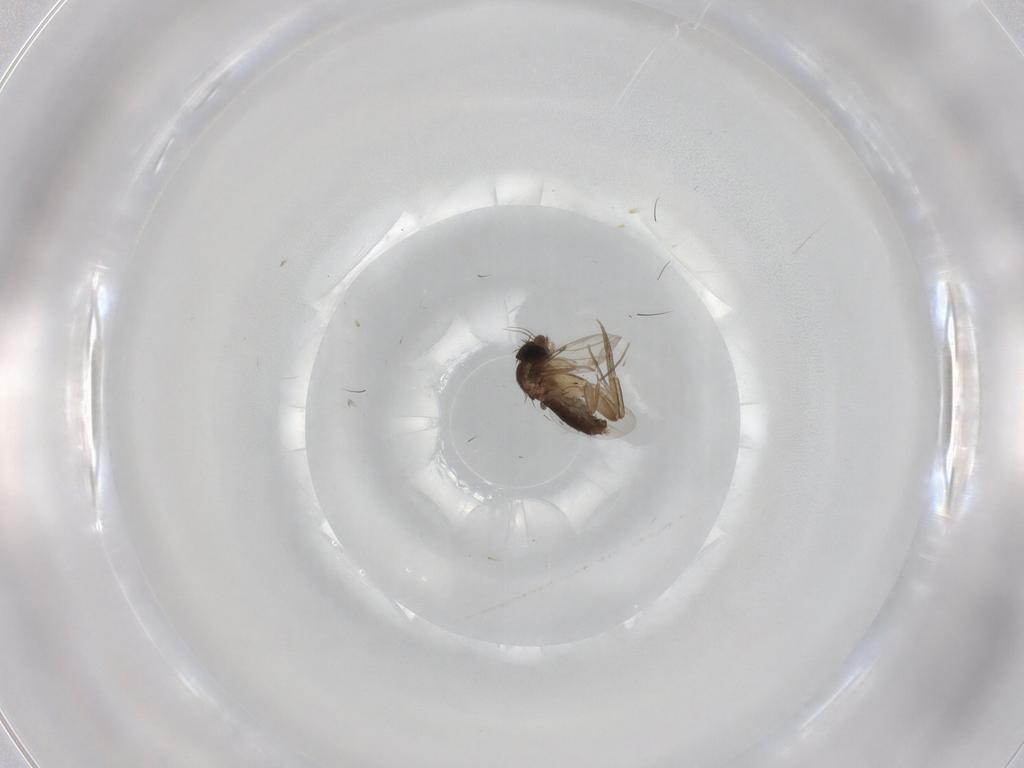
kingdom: Animalia
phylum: Arthropoda
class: Insecta
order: Diptera
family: Phoridae
